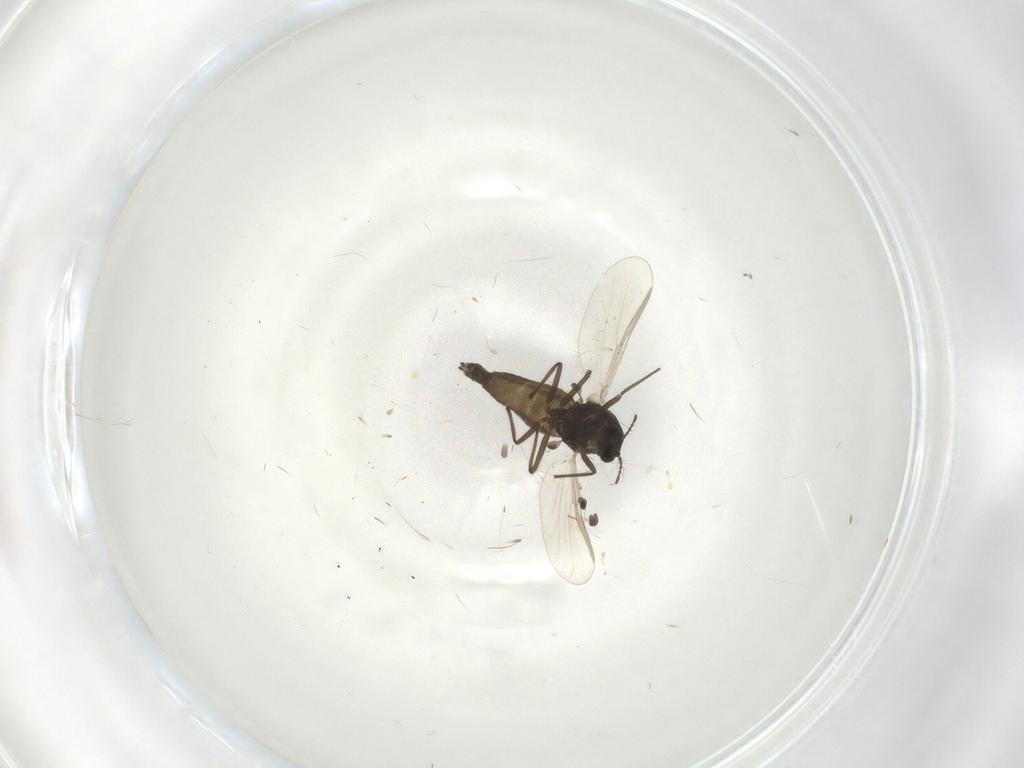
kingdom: Animalia
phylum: Arthropoda
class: Insecta
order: Diptera
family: Chironomidae
